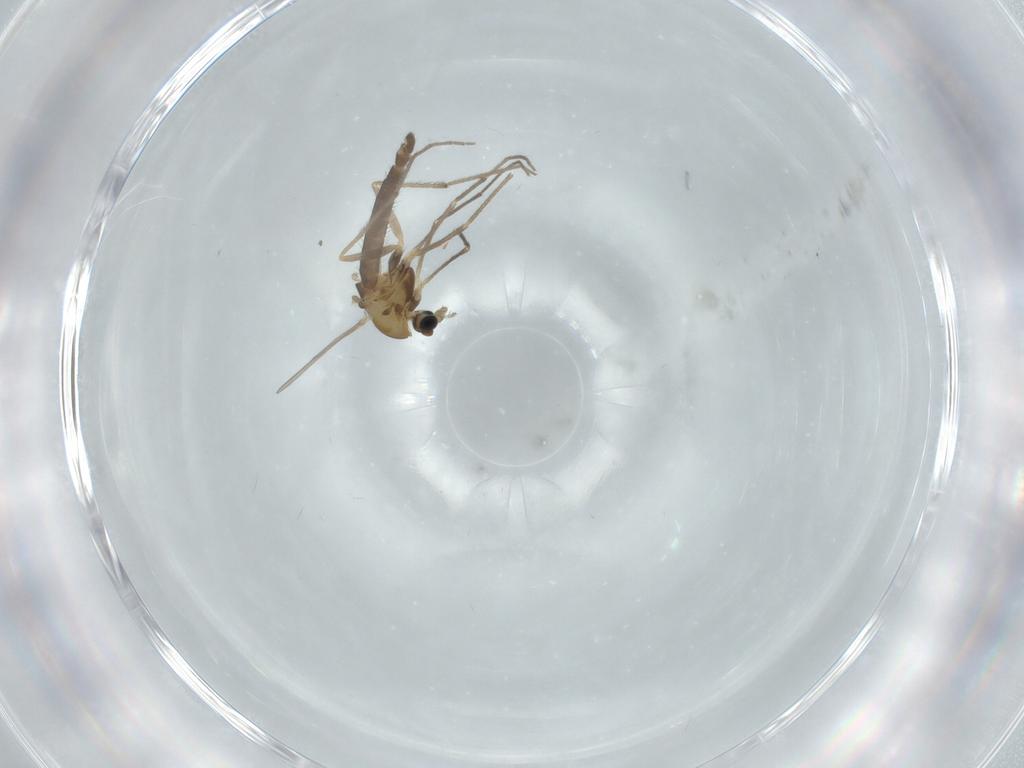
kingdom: Animalia
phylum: Arthropoda
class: Insecta
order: Diptera
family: Chironomidae
